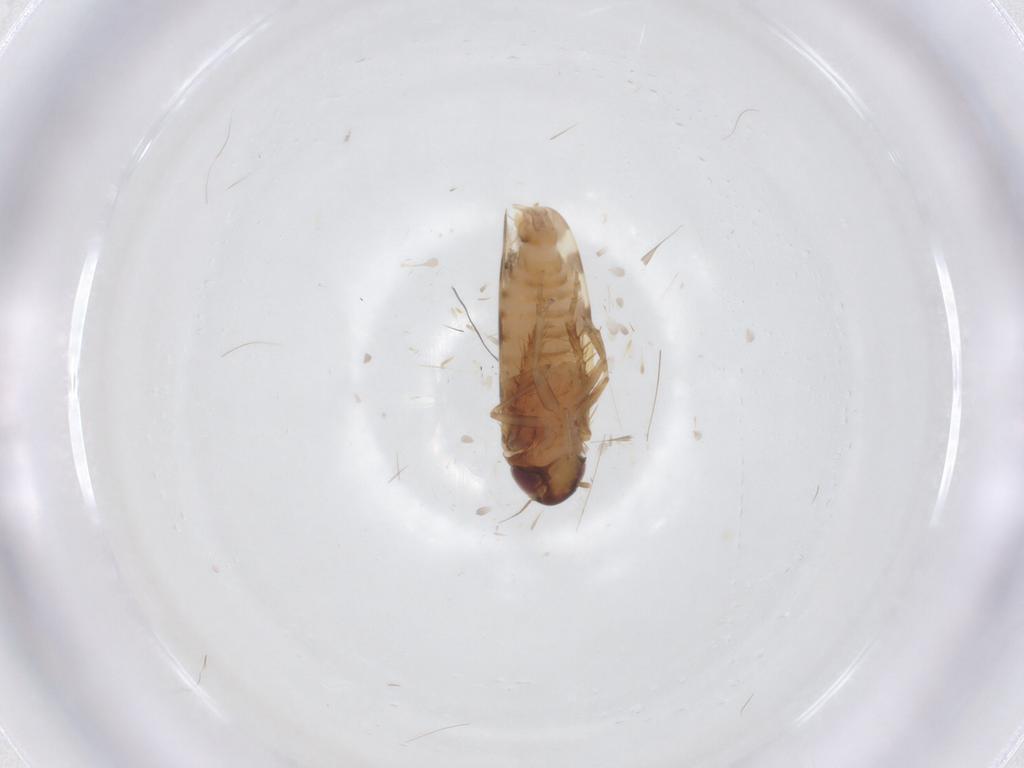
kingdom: Animalia
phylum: Arthropoda
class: Insecta
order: Hemiptera
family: Cicadellidae
